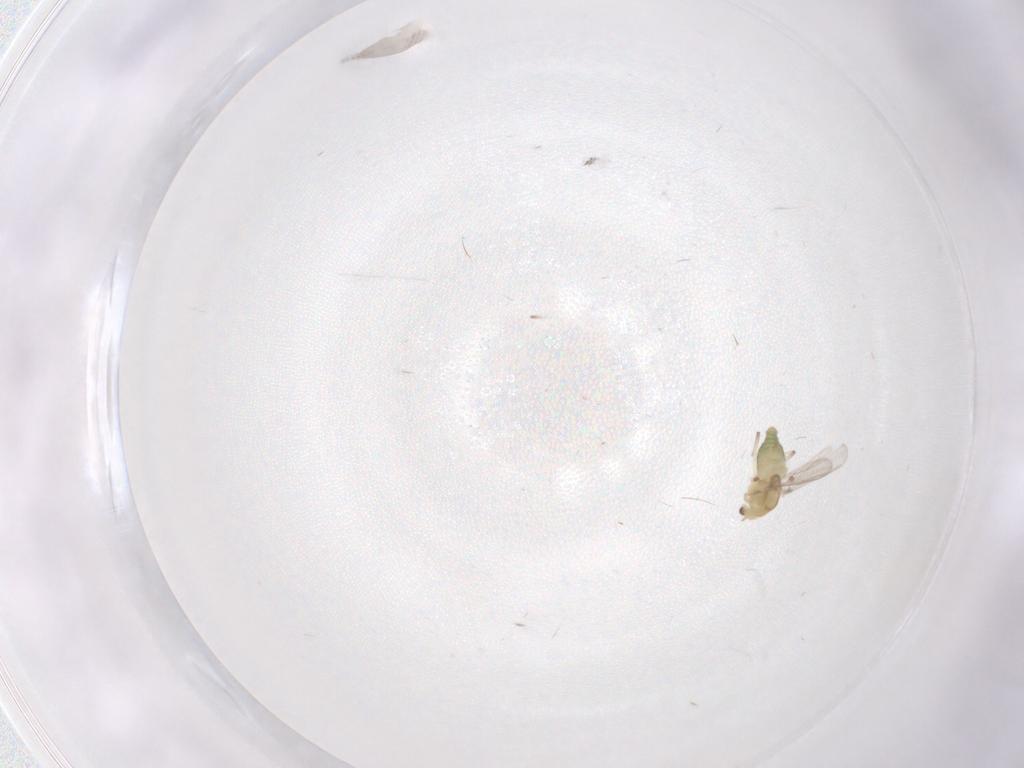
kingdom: Animalia
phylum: Arthropoda
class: Insecta
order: Diptera
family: Chironomidae
